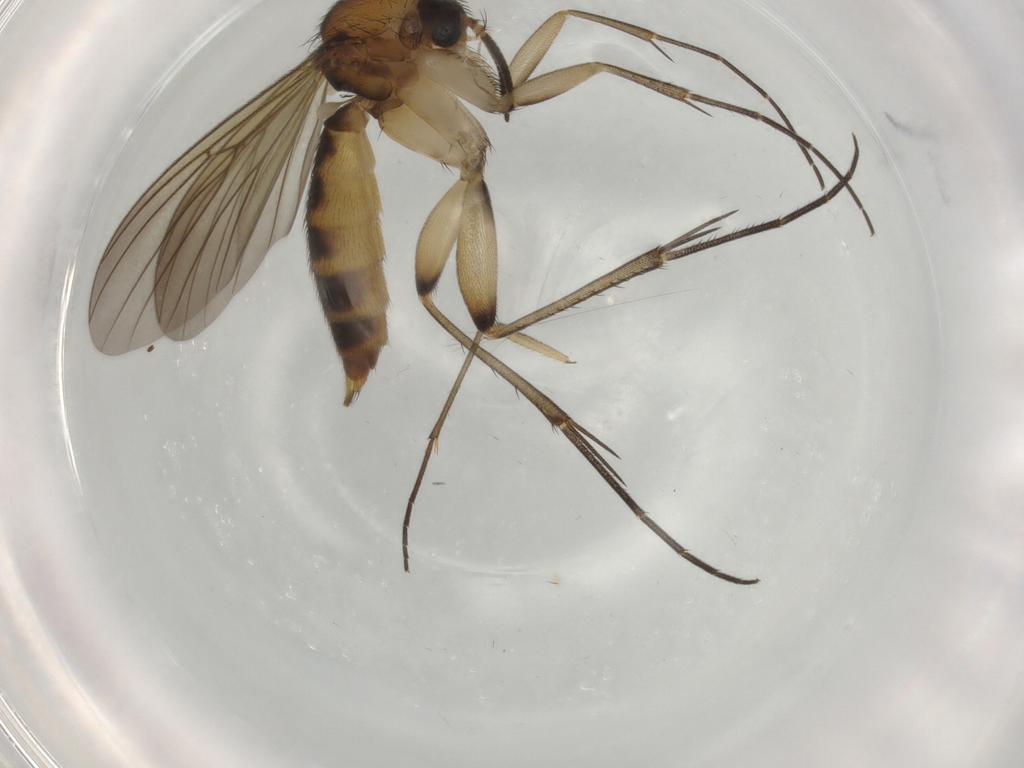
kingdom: Animalia
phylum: Arthropoda
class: Insecta
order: Diptera
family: Mycetophilidae
